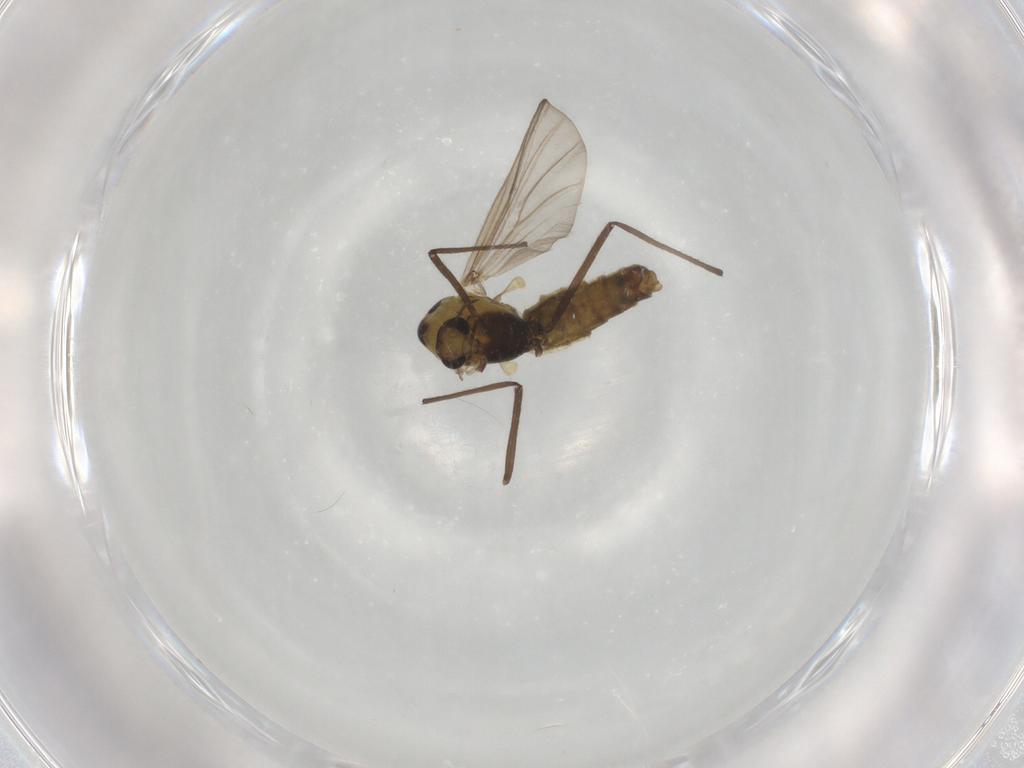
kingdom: Animalia
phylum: Arthropoda
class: Insecta
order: Diptera
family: Chironomidae
